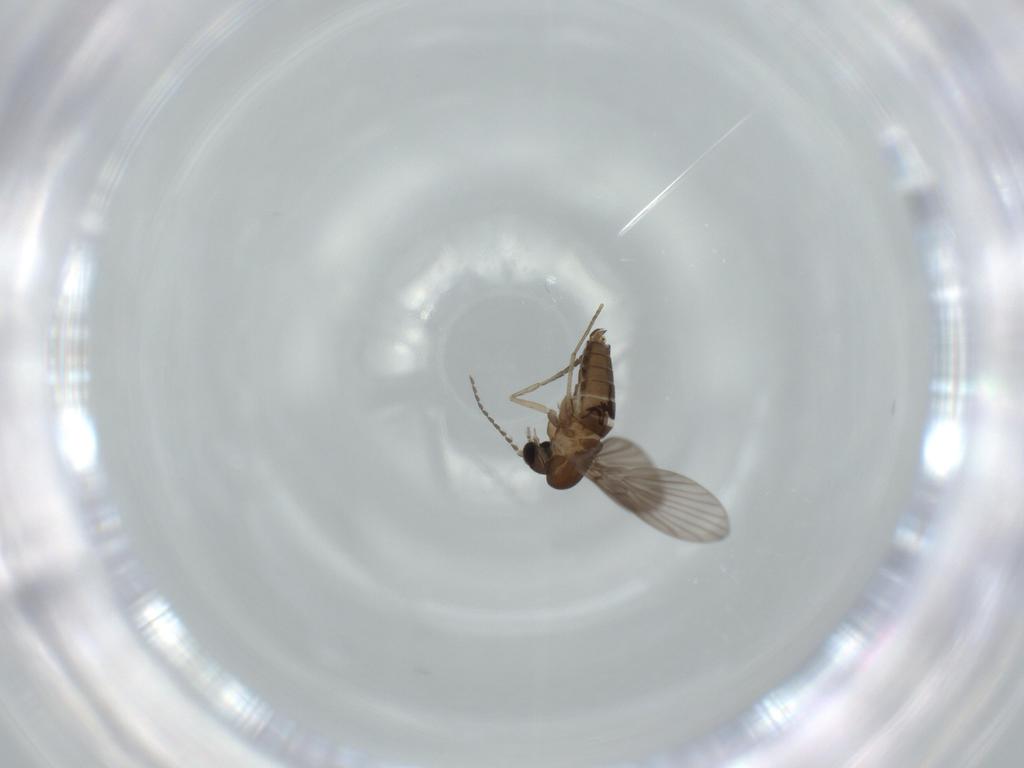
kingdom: Animalia
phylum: Arthropoda
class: Insecta
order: Diptera
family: Psychodidae
